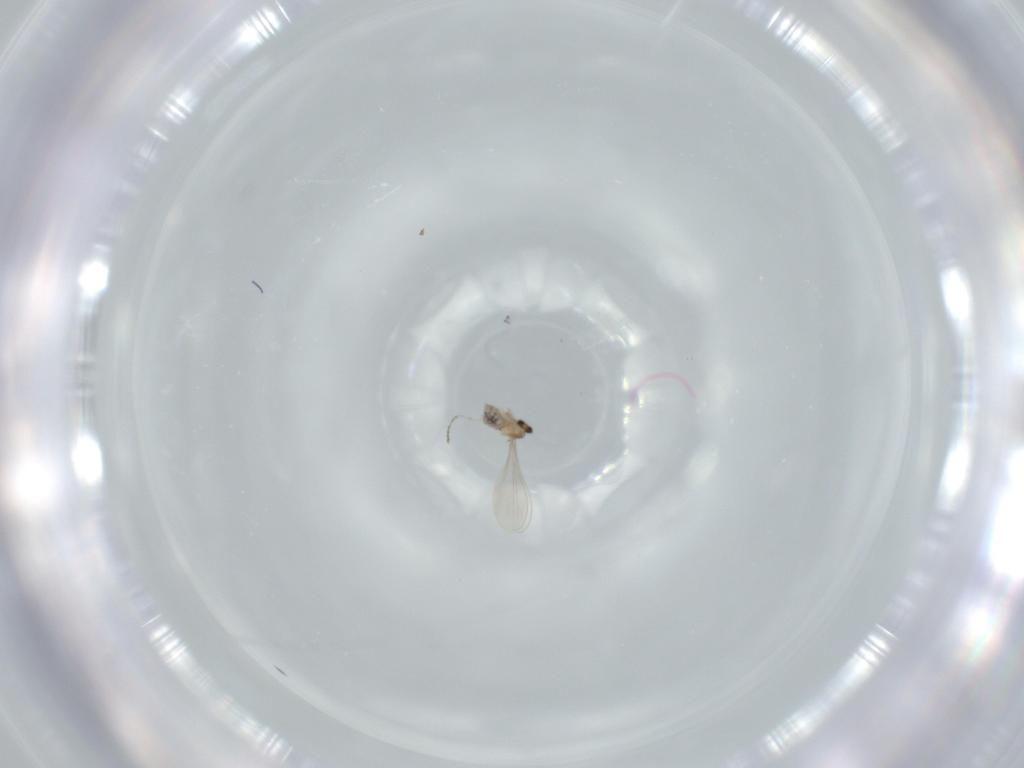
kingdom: Animalia
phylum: Arthropoda
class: Insecta
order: Diptera
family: Cecidomyiidae
